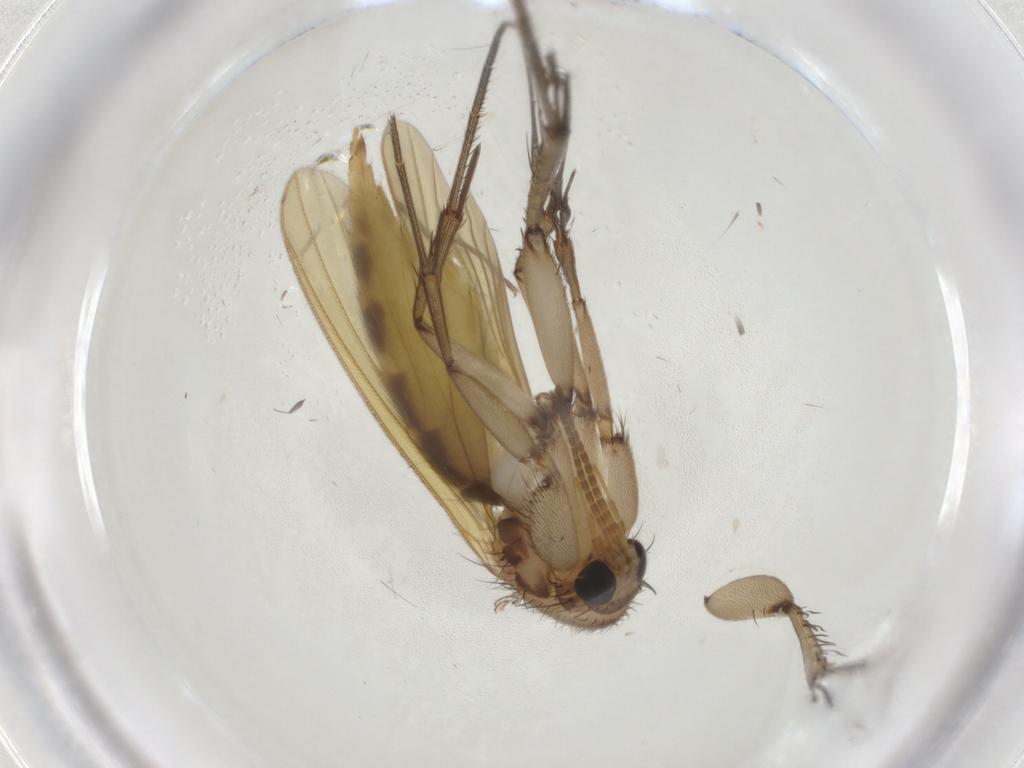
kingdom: Animalia
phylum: Arthropoda
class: Insecta
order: Diptera
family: Mycetophilidae
